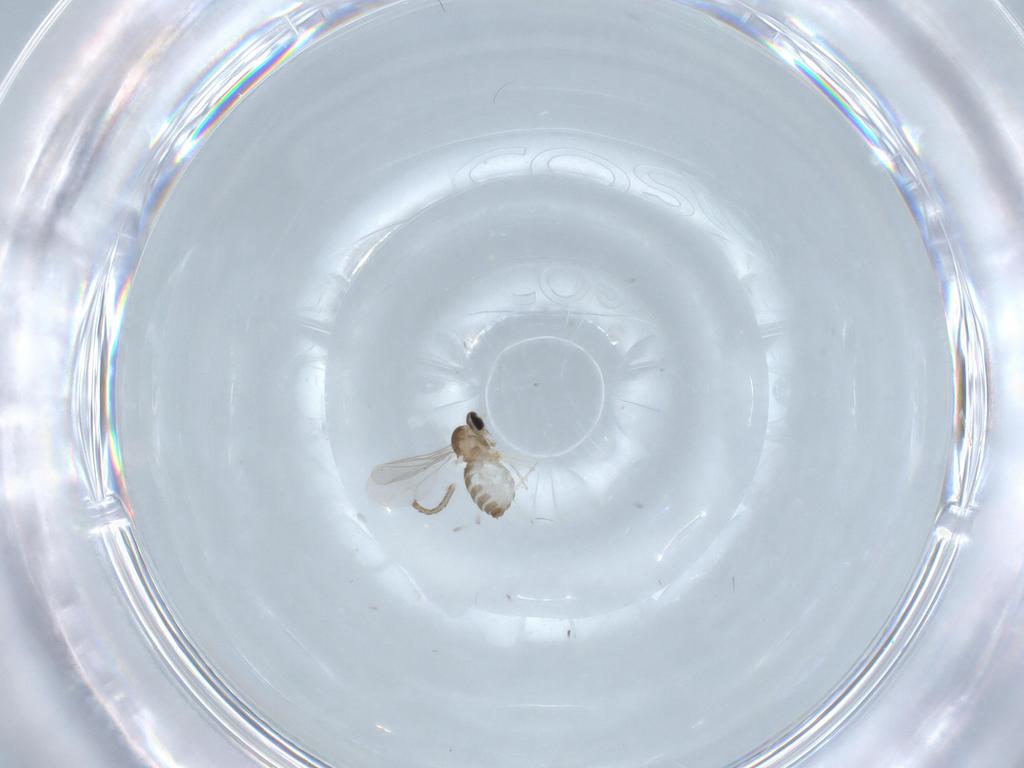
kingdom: Animalia
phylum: Arthropoda
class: Insecta
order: Diptera
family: Cecidomyiidae
